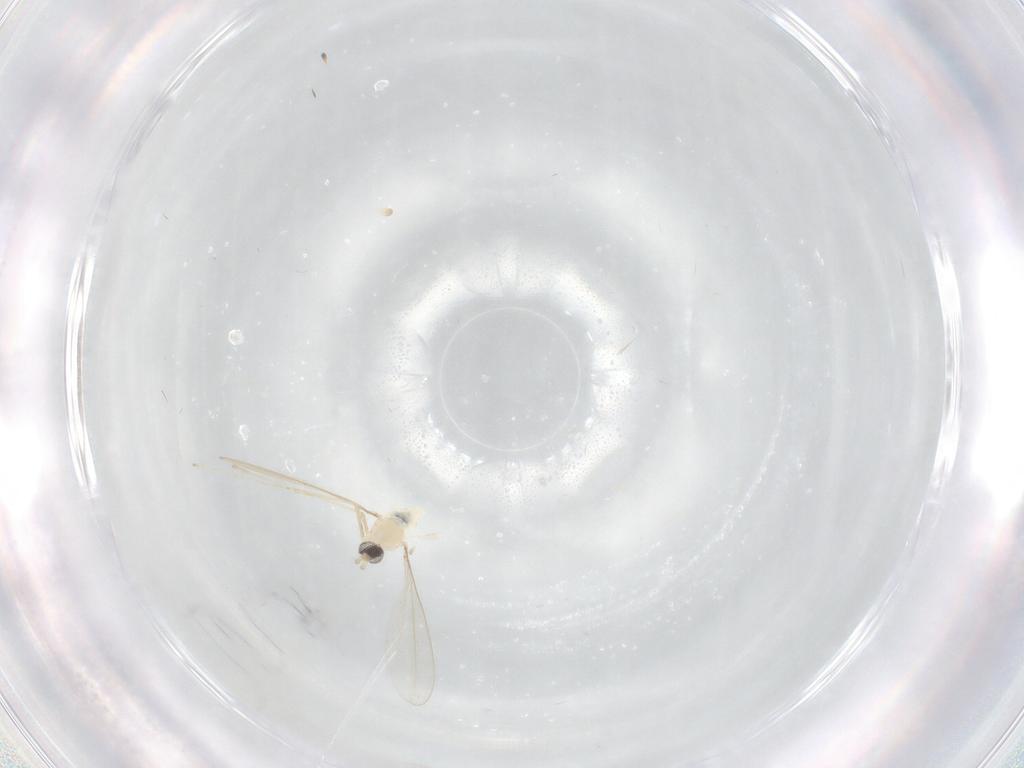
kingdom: Animalia
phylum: Arthropoda
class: Insecta
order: Diptera
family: Cecidomyiidae
